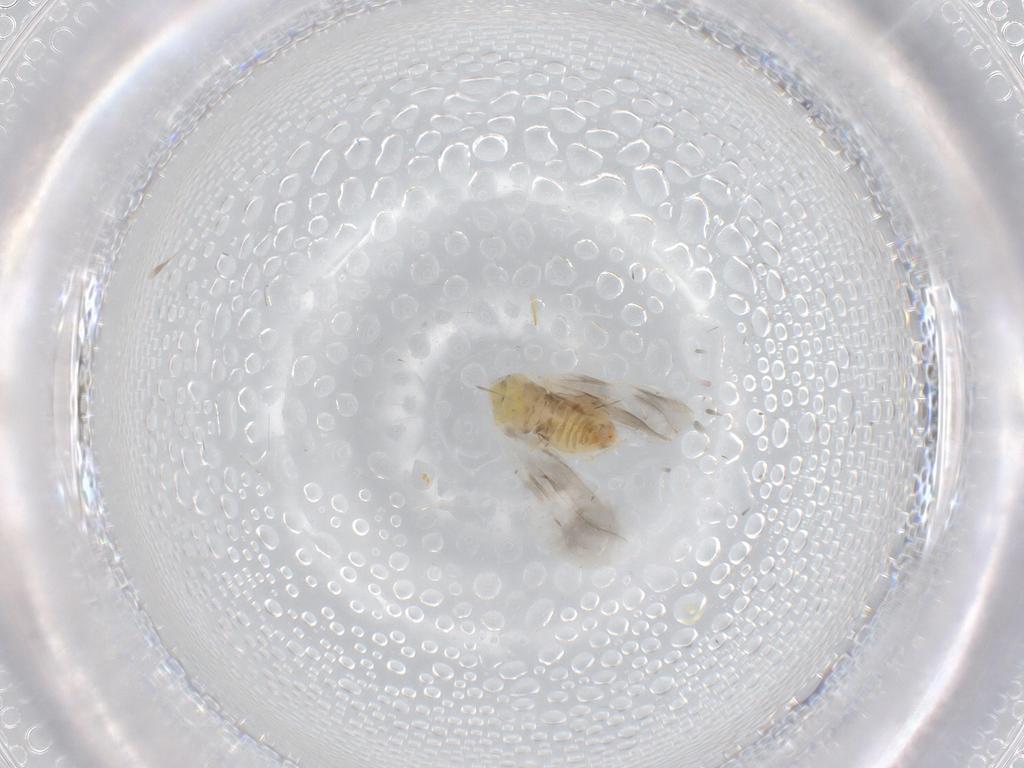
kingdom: Animalia
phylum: Arthropoda
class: Insecta
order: Hemiptera
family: Aleyrodidae
